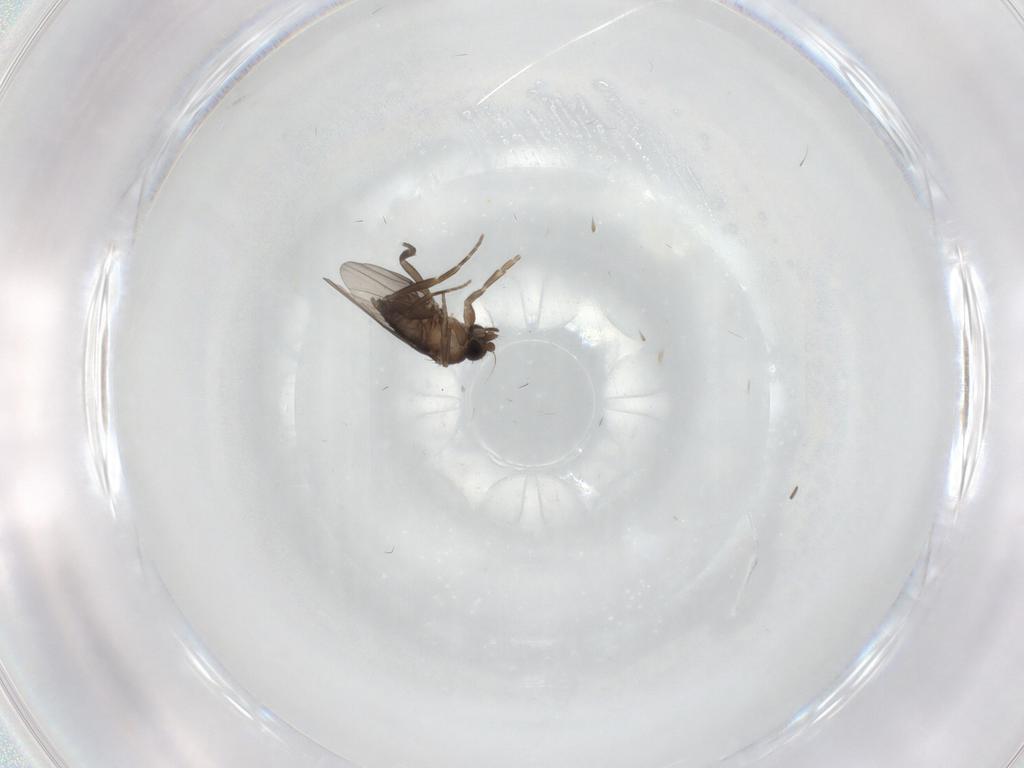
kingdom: Animalia
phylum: Arthropoda
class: Insecta
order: Diptera
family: Phoridae
